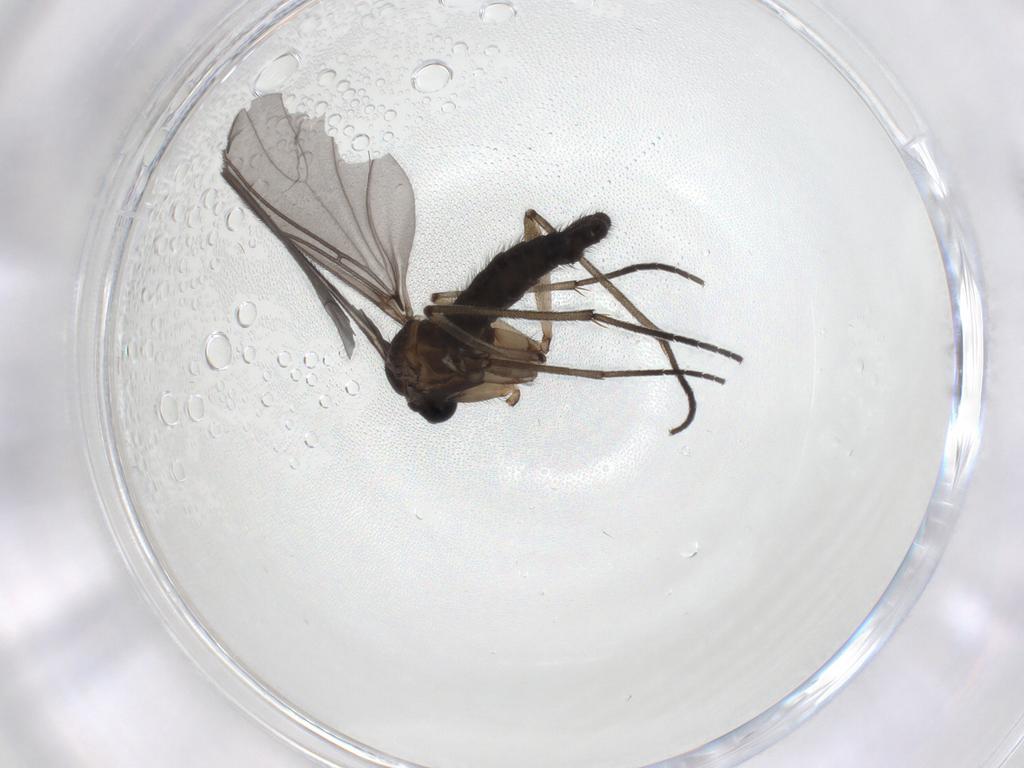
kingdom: Animalia
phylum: Arthropoda
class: Insecta
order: Diptera
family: Sciaridae
